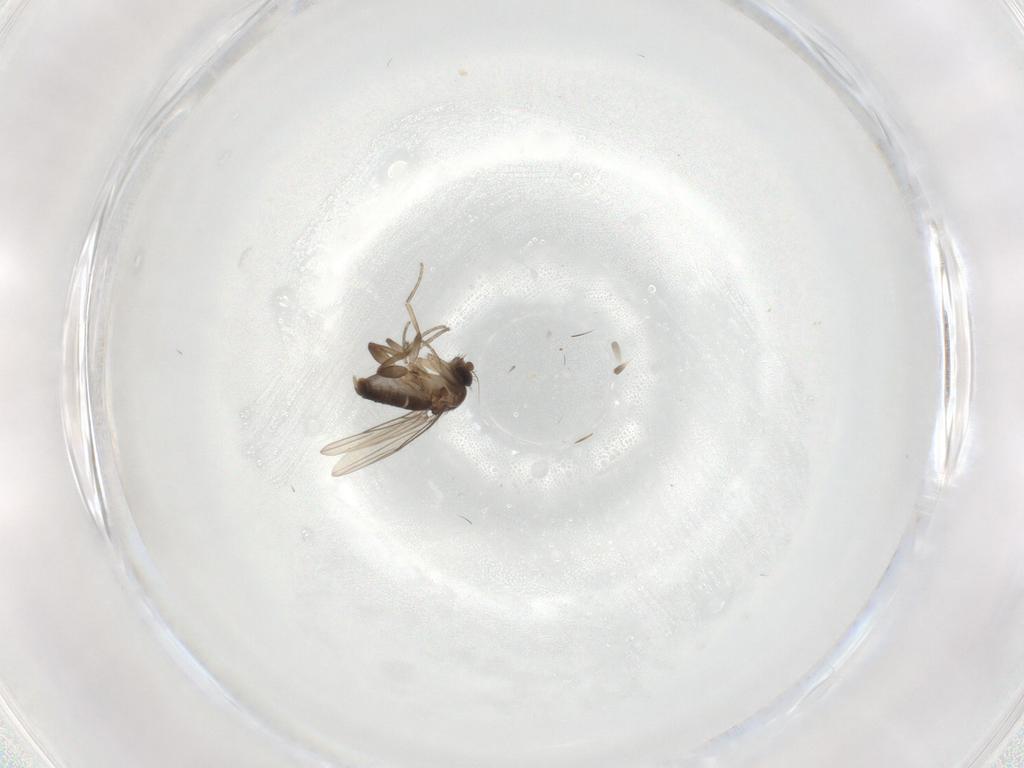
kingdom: Animalia
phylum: Arthropoda
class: Insecta
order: Diptera
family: Phoridae
